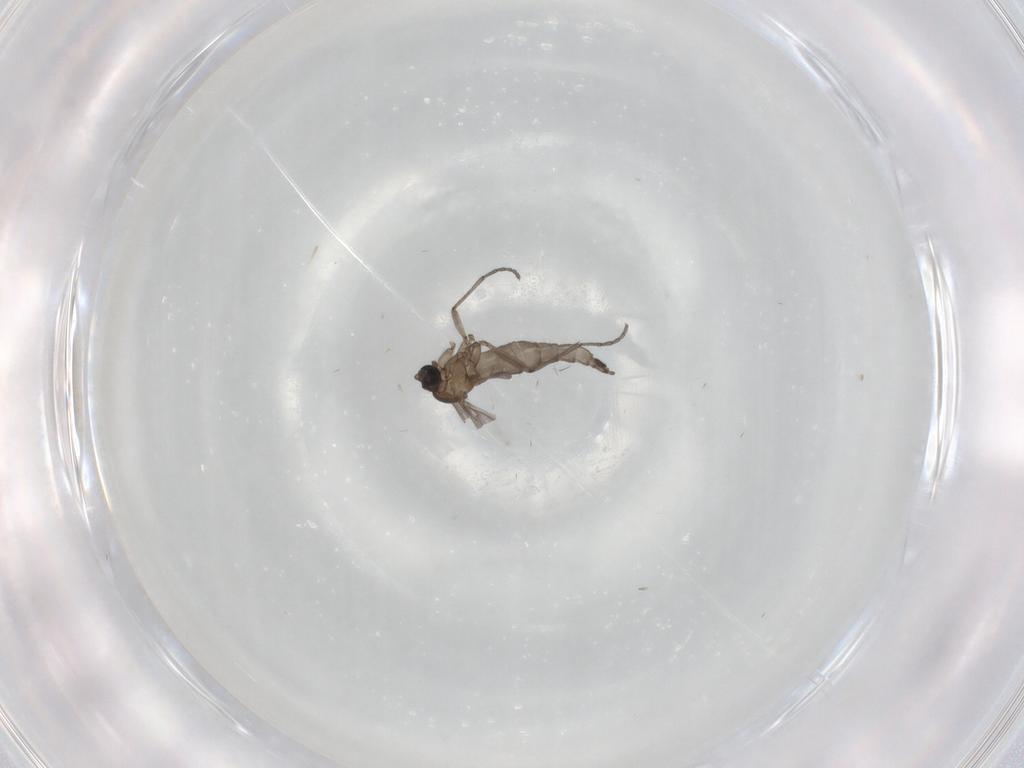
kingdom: Animalia
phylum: Arthropoda
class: Insecta
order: Diptera
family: Sciaridae
